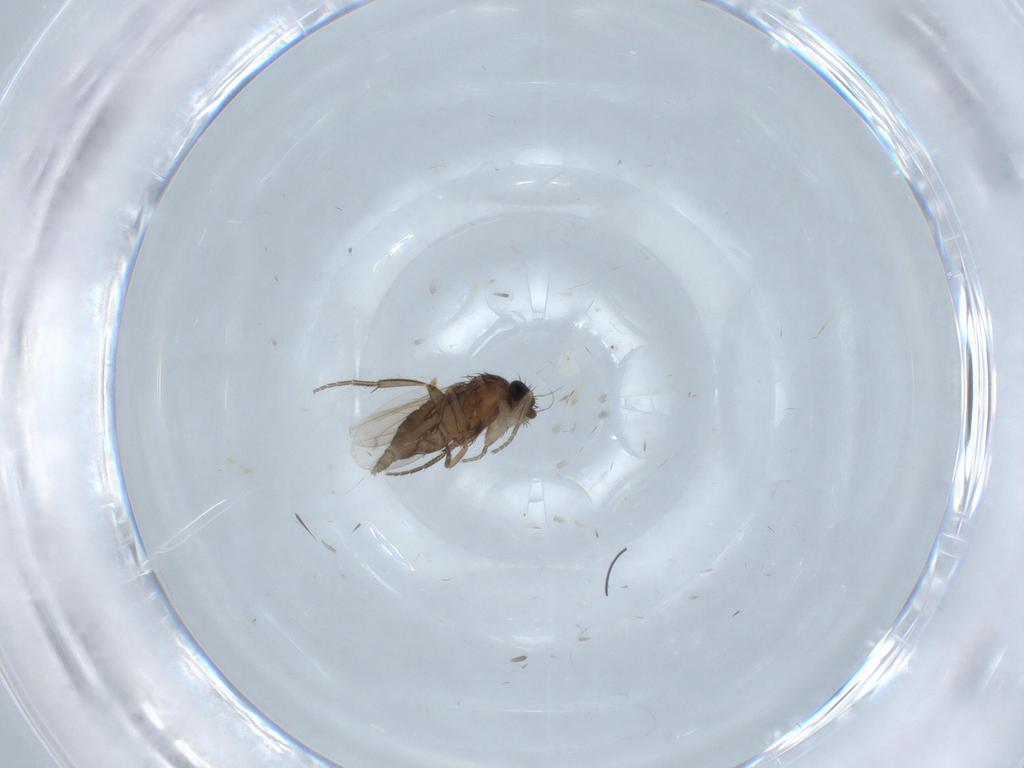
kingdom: Animalia
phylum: Arthropoda
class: Insecta
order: Diptera
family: Phoridae
